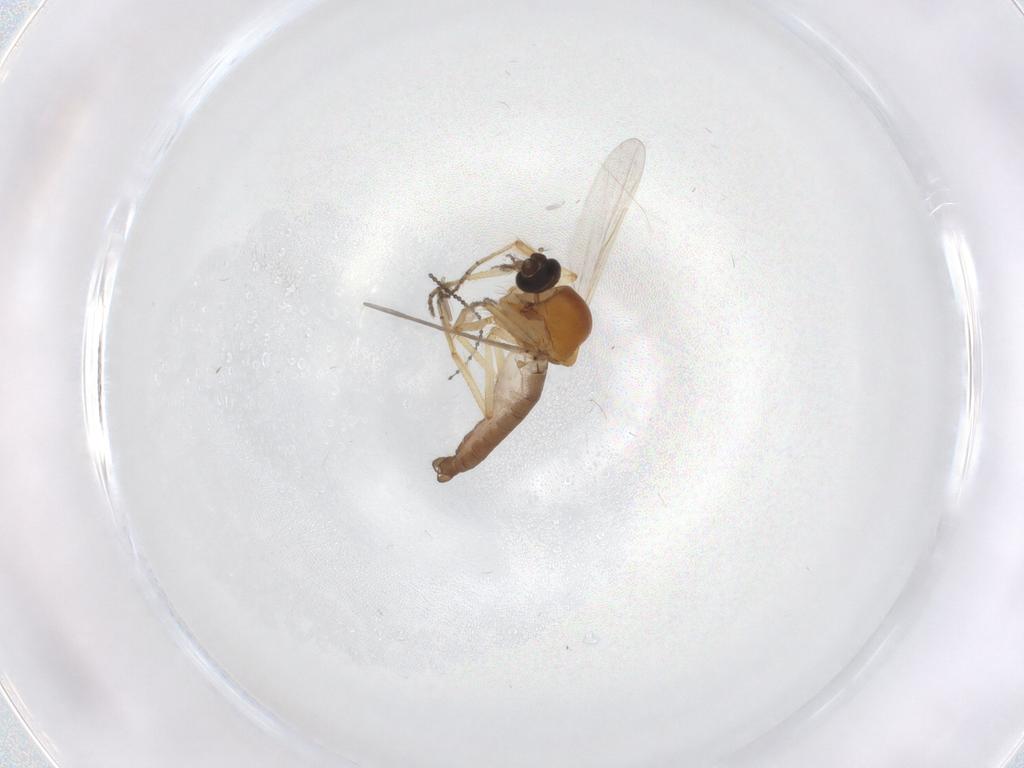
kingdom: Animalia
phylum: Arthropoda
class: Insecta
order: Diptera
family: Ceratopogonidae
